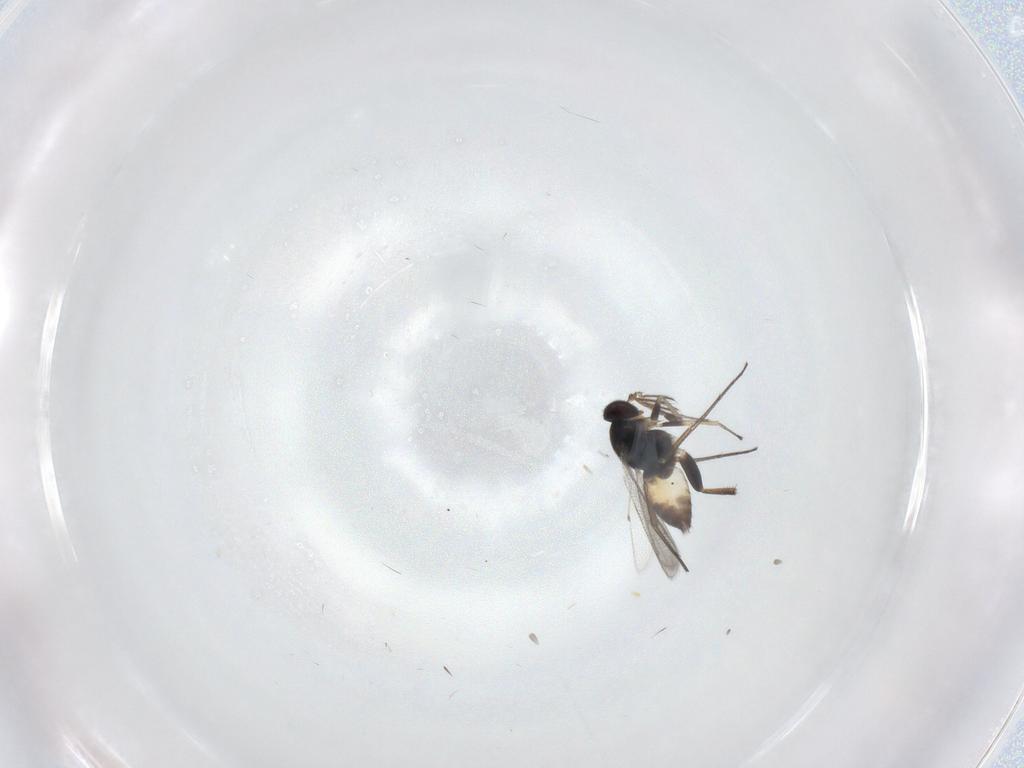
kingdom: Animalia
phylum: Arthropoda
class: Insecta
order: Hymenoptera
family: Eulophidae
